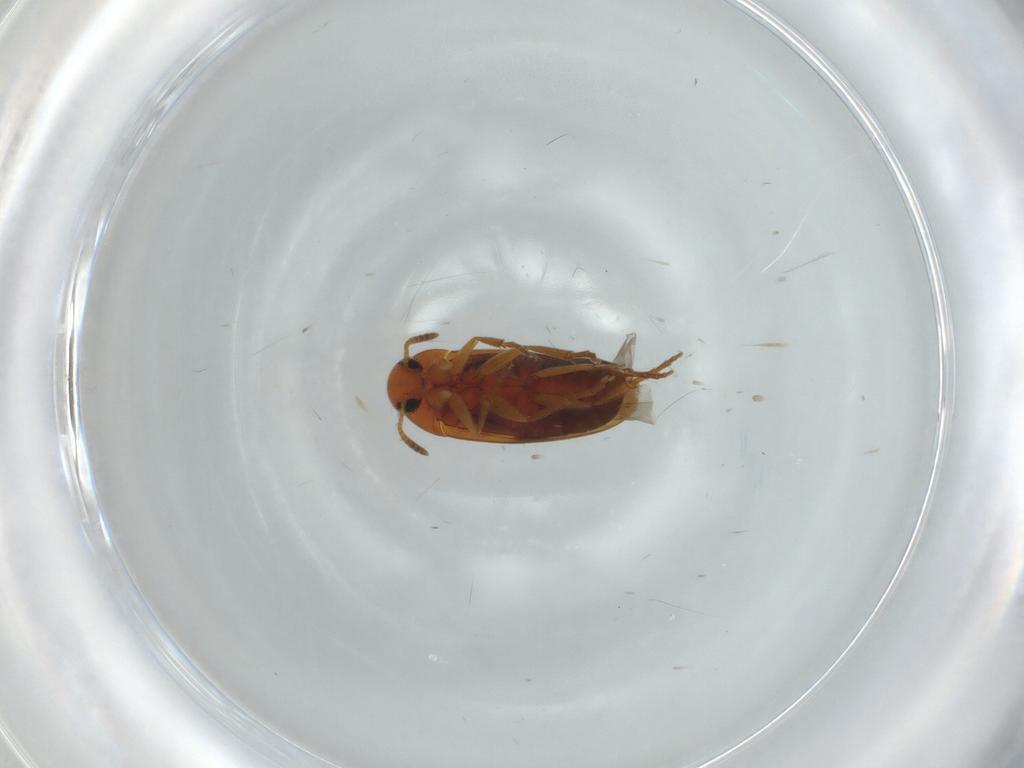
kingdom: Animalia
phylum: Arthropoda
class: Insecta
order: Coleoptera
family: Scraptiidae
